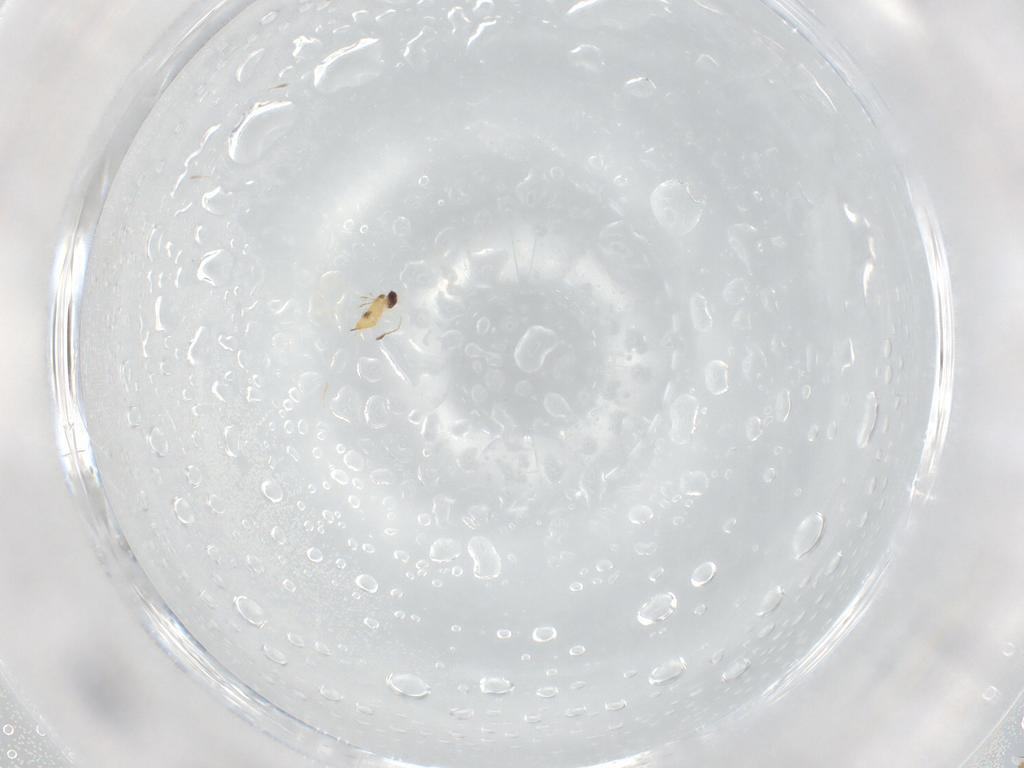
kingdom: Animalia
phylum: Arthropoda
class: Insecta
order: Hymenoptera
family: Mymaridae
